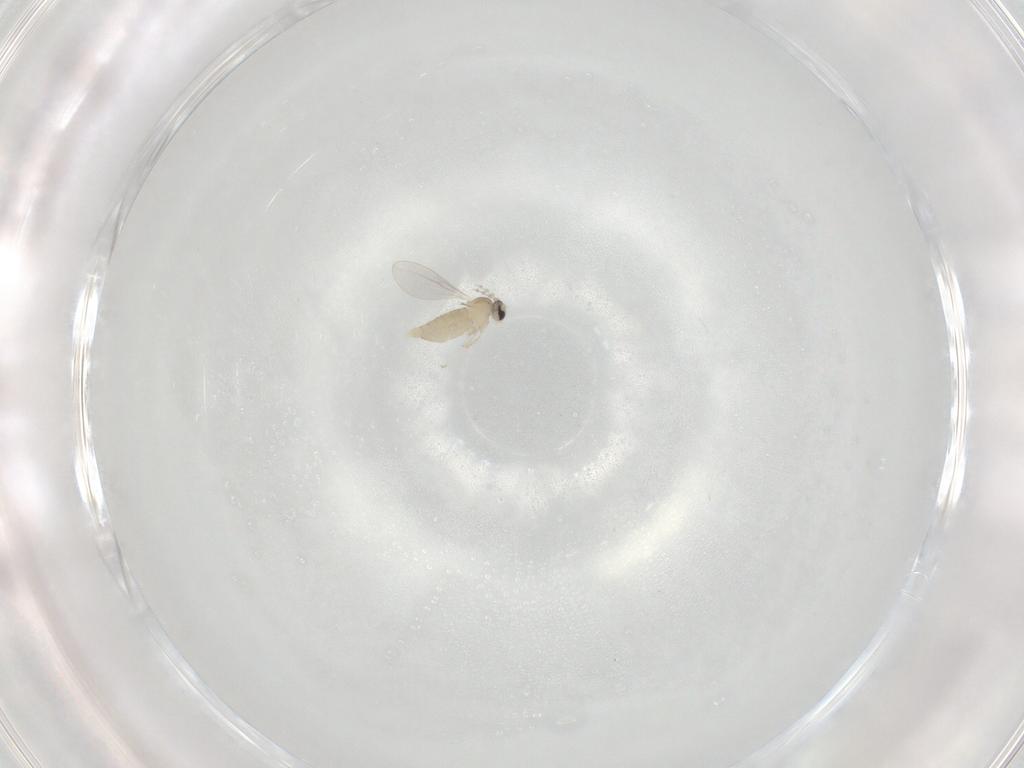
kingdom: Animalia
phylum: Arthropoda
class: Insecta
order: Diptera
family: Cecidomyiidae
